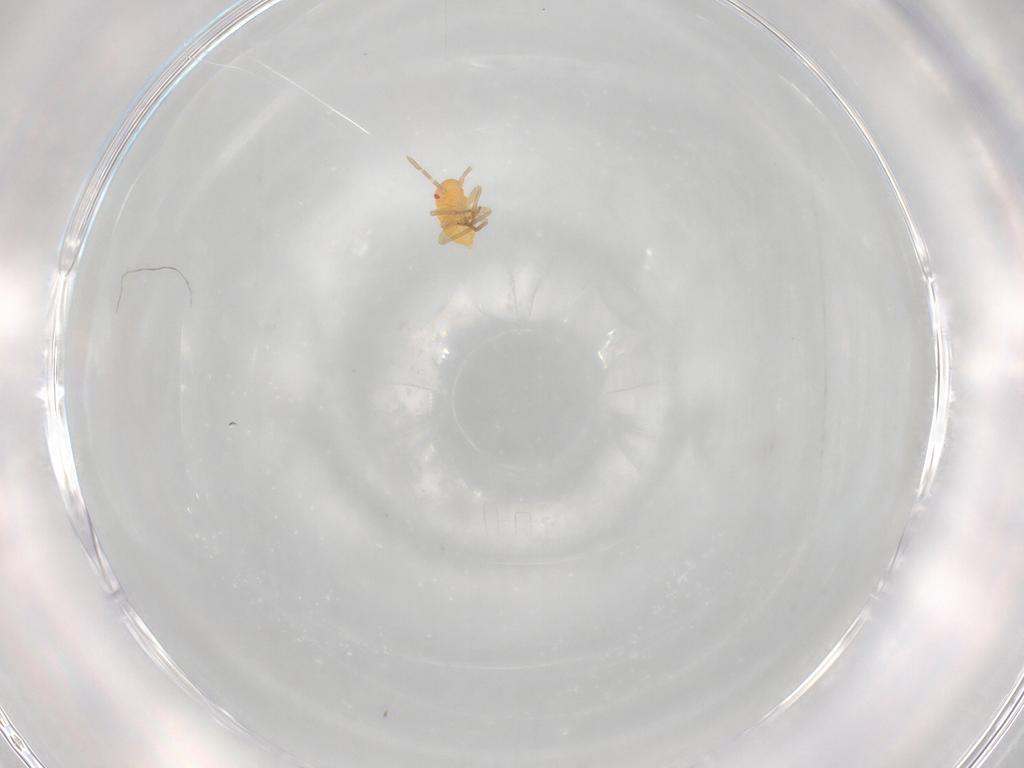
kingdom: Animalia
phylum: Arthropoda
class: Insecta
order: Hemiptera
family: Miridae
